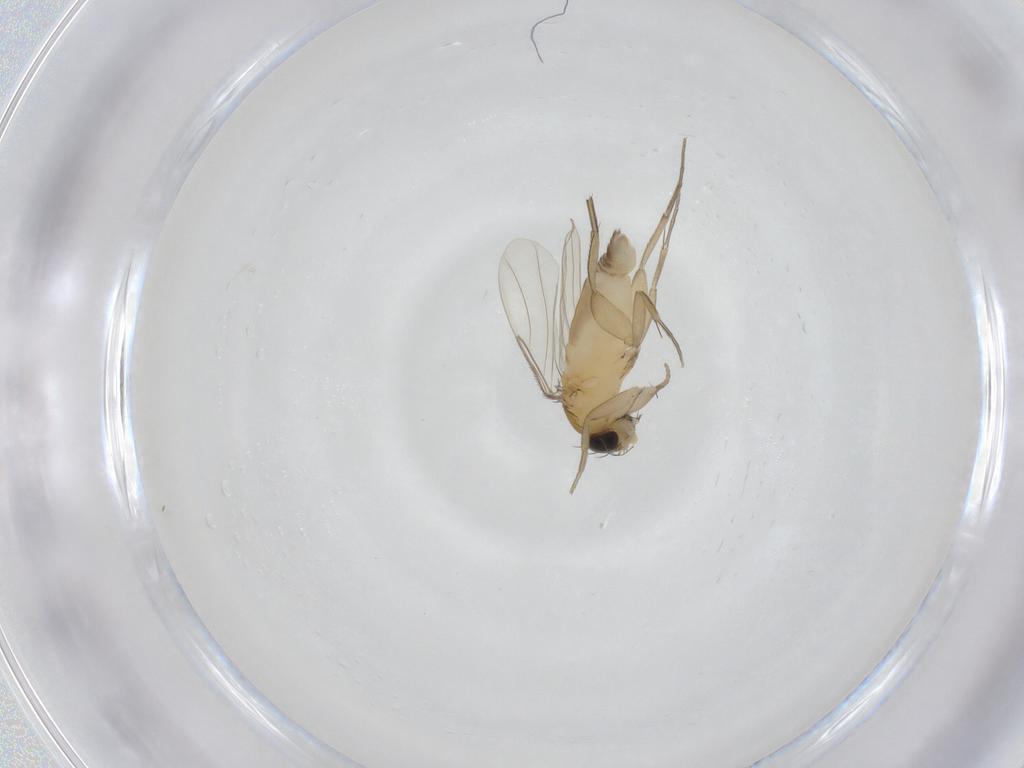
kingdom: Animalia
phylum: Arthropoda
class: Insecta
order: Diptera
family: Phoridae
